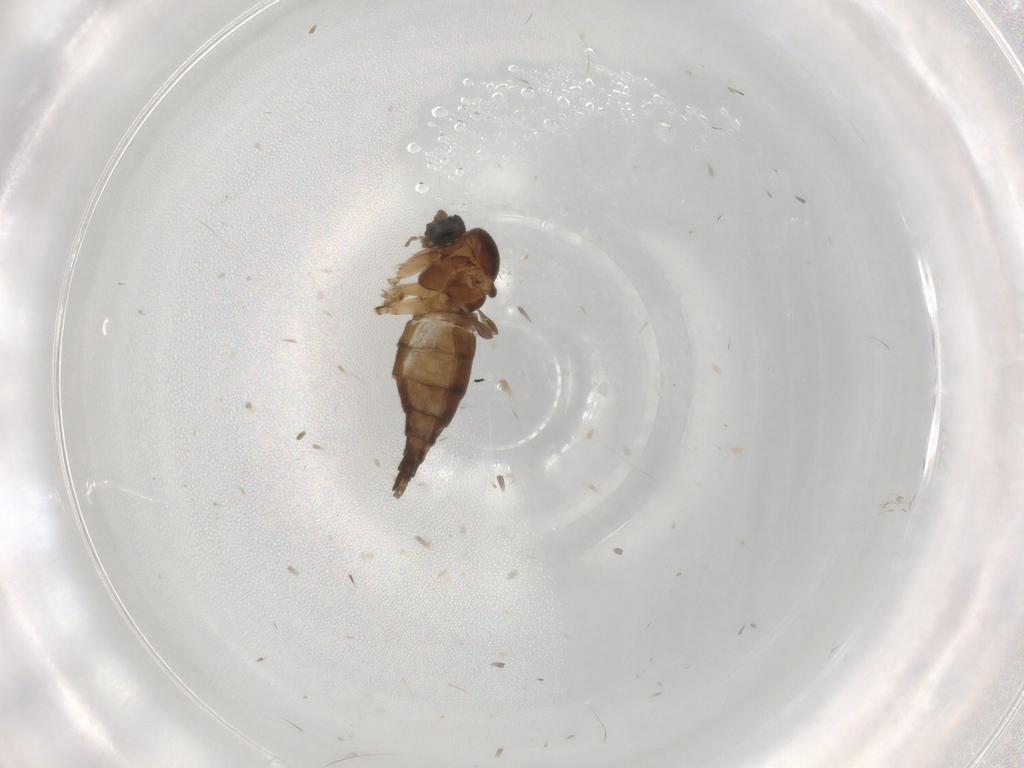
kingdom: Animalia
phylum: Arthropoda
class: Insecta
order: Diptera
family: Sciaridae
